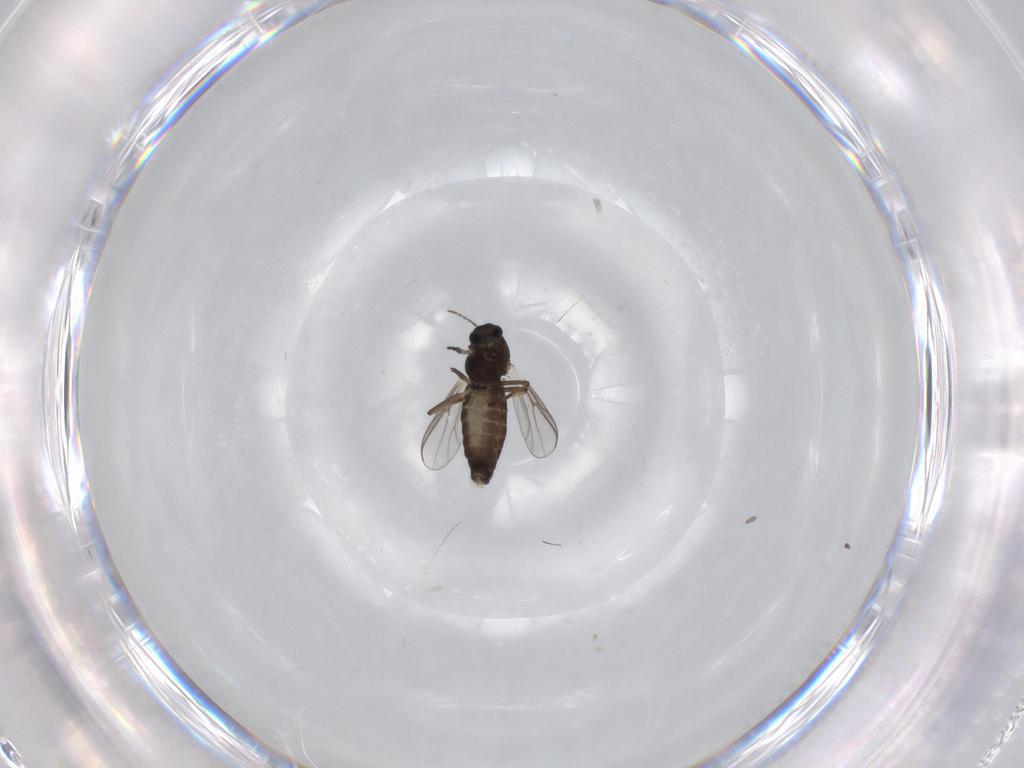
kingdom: Animalia
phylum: Arthropoda
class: Insecta
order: Diptera
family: Chironomidae
